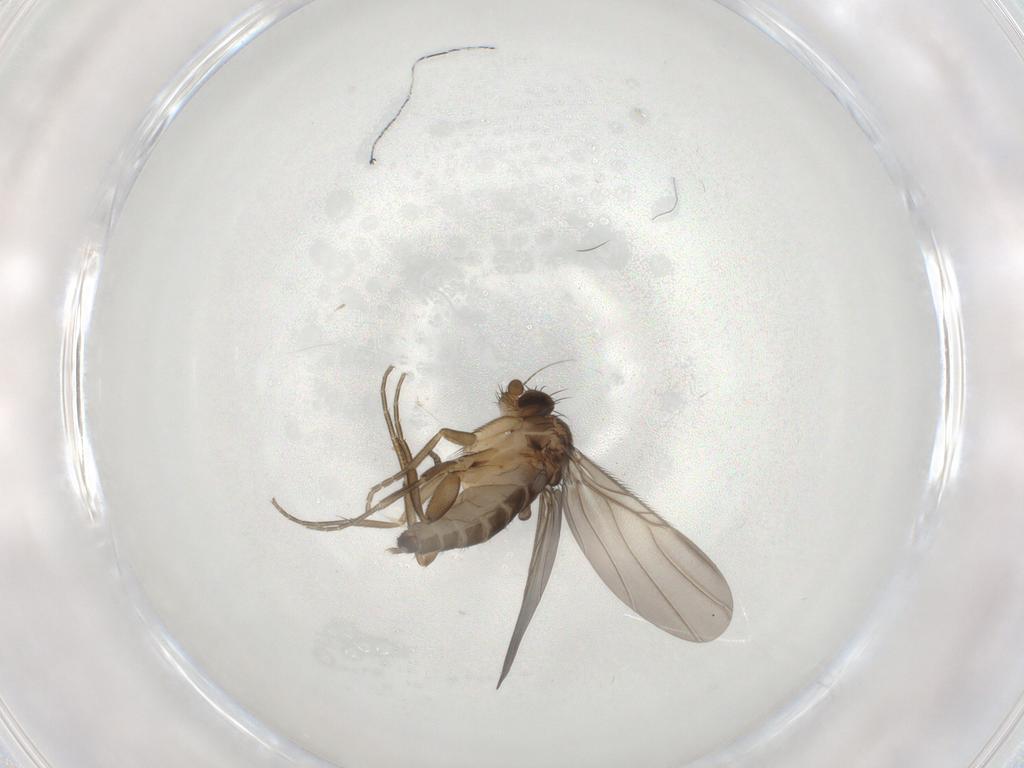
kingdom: Animalia
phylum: Arthropoda
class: Insecta
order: Diptera
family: Phoridae
